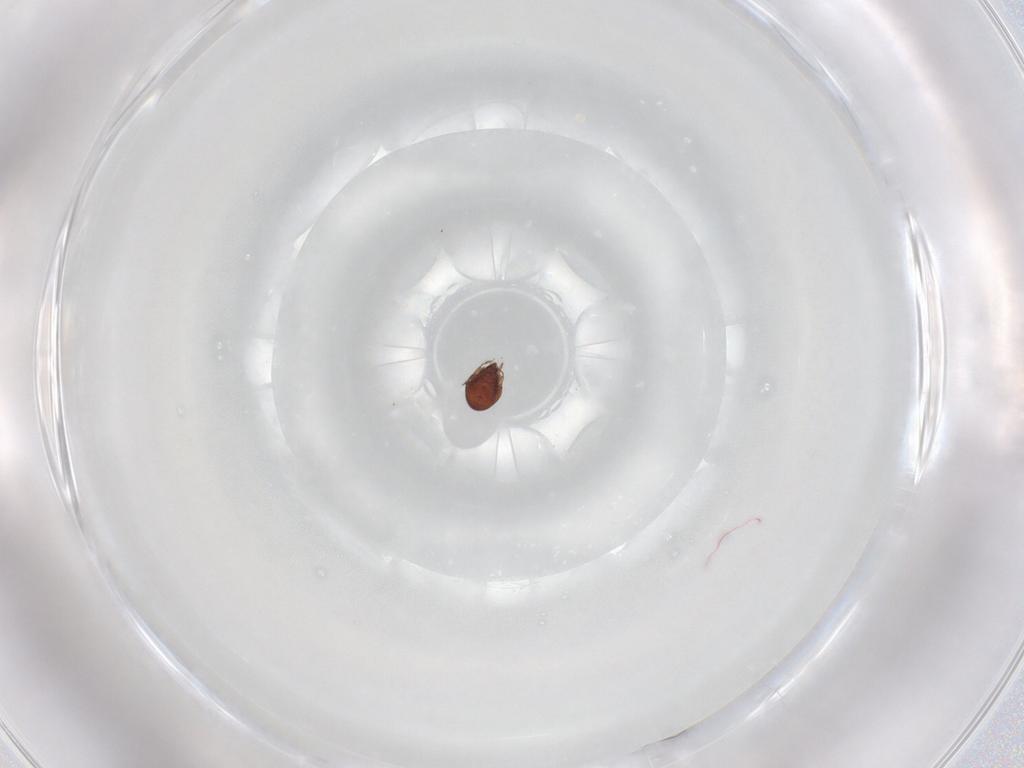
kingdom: Animalia
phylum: Arthropoda
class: Arachnida
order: Sarcoptiformes
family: Ceratozetidae
